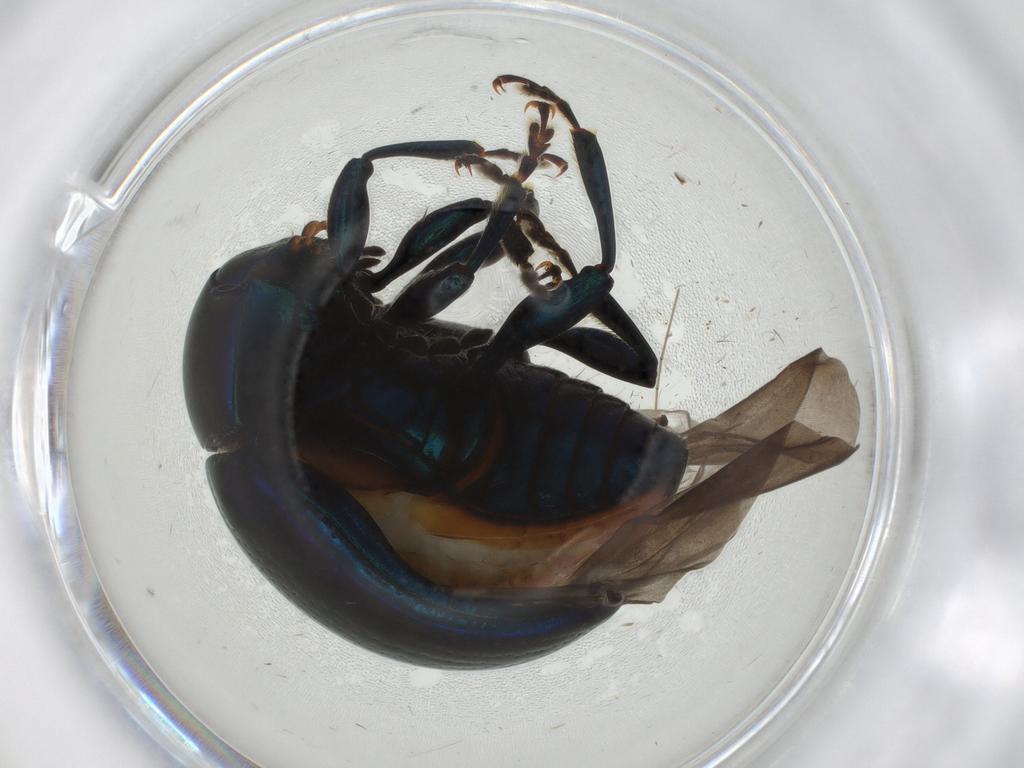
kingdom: Animalia
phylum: Arthropoda
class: Insecta
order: Coleoptera
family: Chrysomelidae
